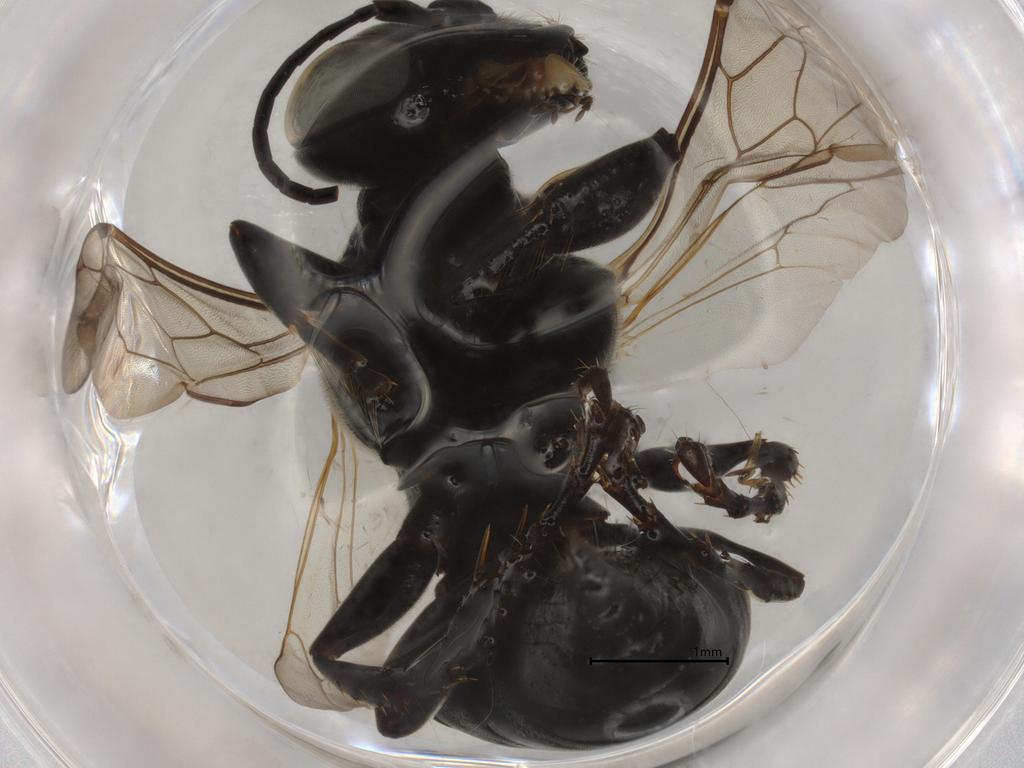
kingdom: Animalia
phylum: Arthropoda
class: Insecta
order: Hymenoptera
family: Crabronidae
